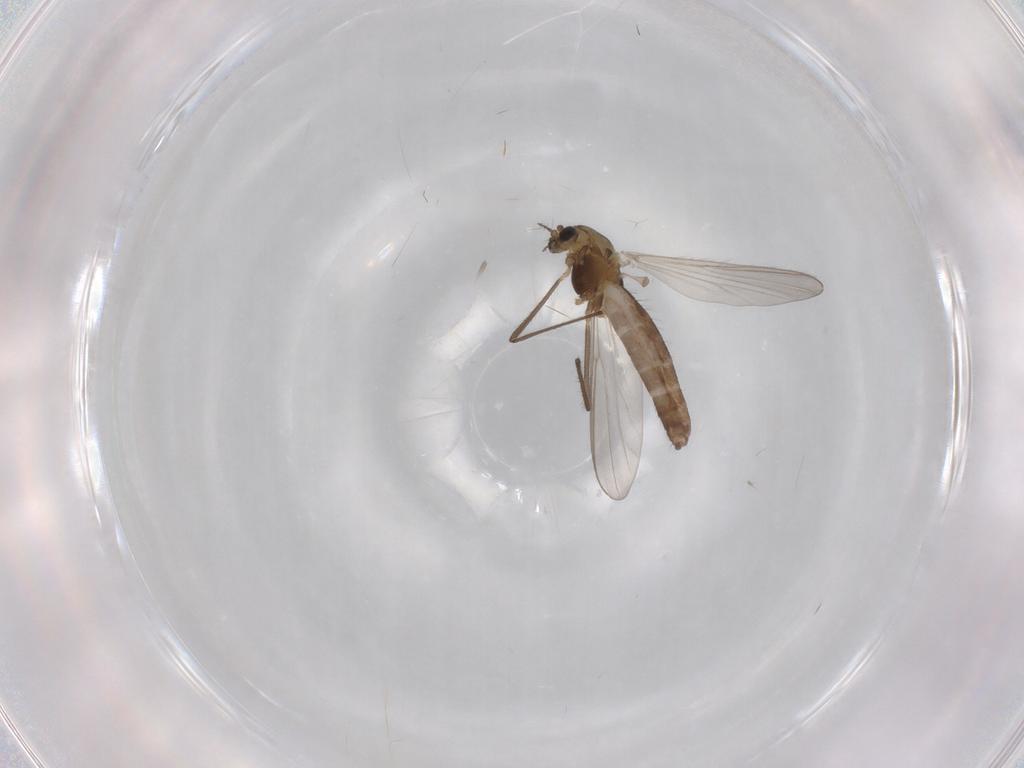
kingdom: Animalia
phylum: Arthropoda
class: Insecta
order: Diptera
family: Chironomidae
